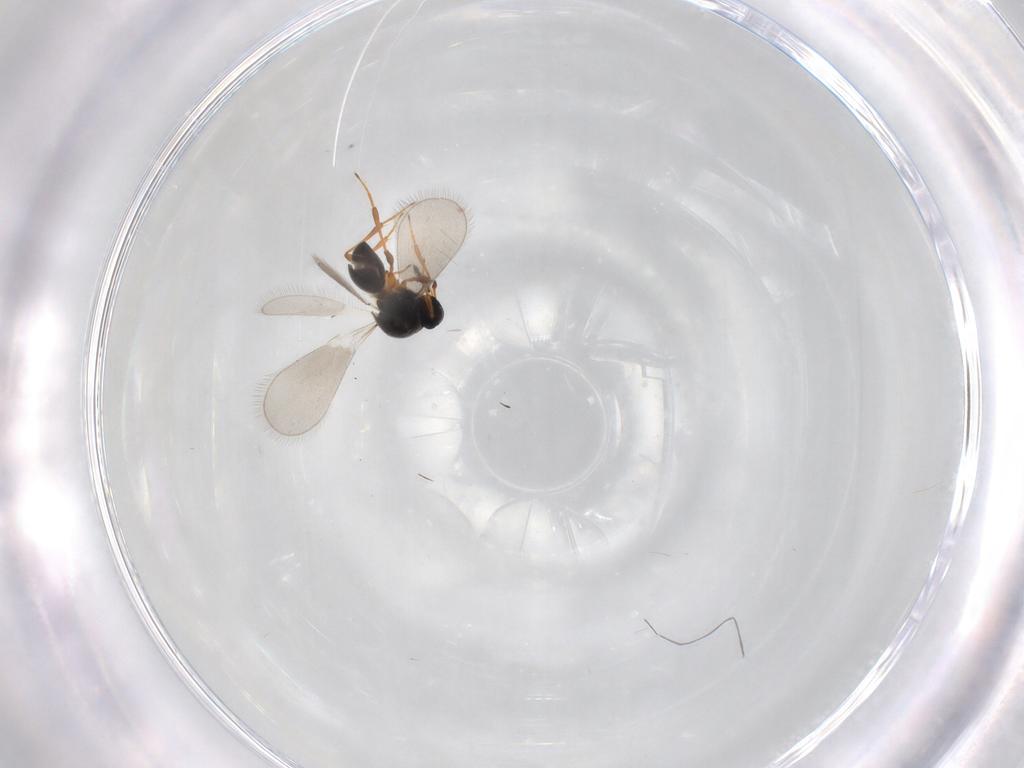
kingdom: Animalia
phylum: Arthropoda
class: Insecta
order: Hymenoptera
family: Platygastridae
